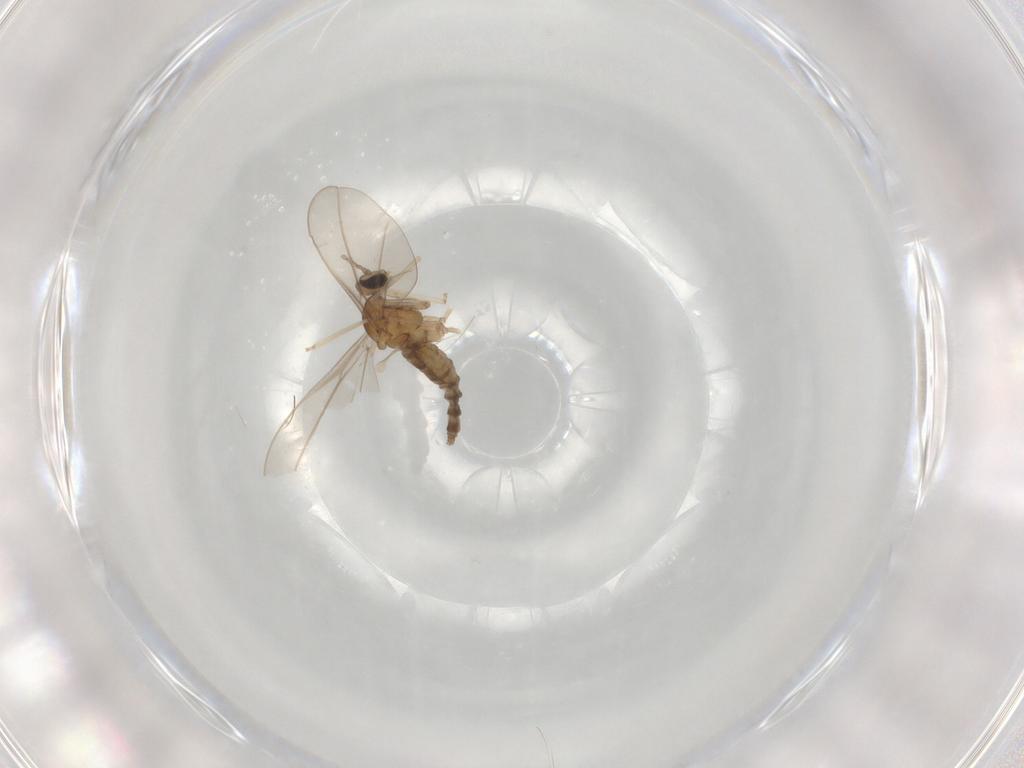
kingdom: Animalia
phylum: Arthropoda
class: Insecta
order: Diptera
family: Cecidomyiidae
